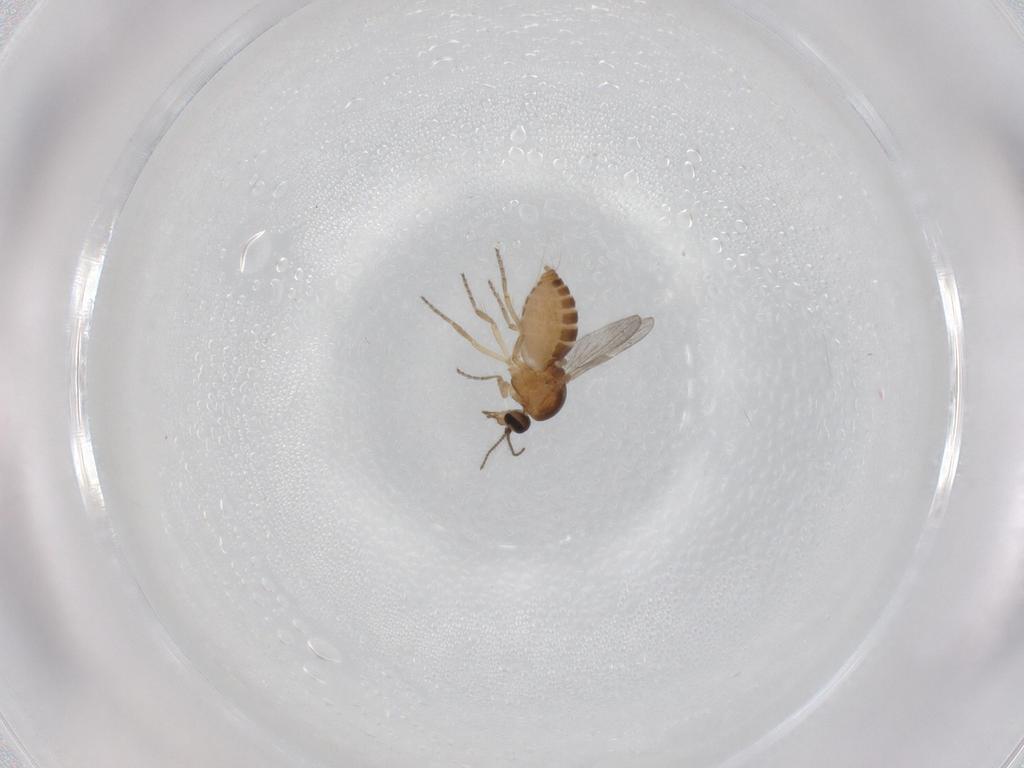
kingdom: Animalia
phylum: Arthropoda
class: Insecta
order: Diptera
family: Ceratopogonidae
